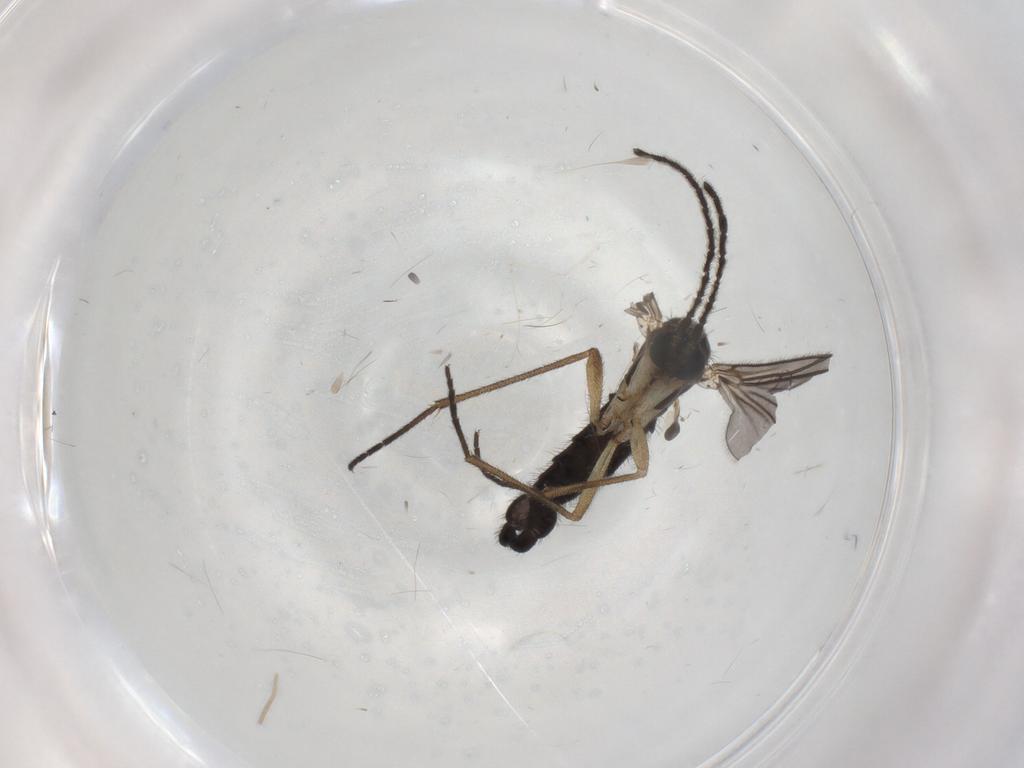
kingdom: Animalia
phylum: Arthropoda
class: Insecta
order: Diptera
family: Sciaridae
